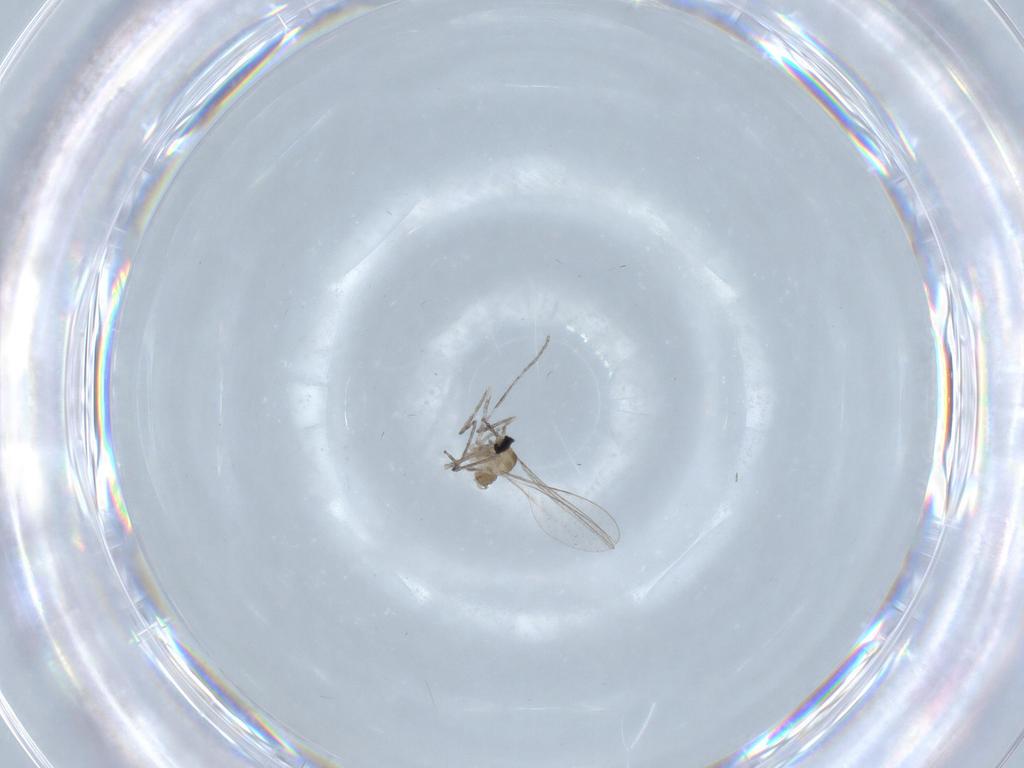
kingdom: Animalia
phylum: Arthropoda
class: Insecta
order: Diptera
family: Cecidomyiidae
